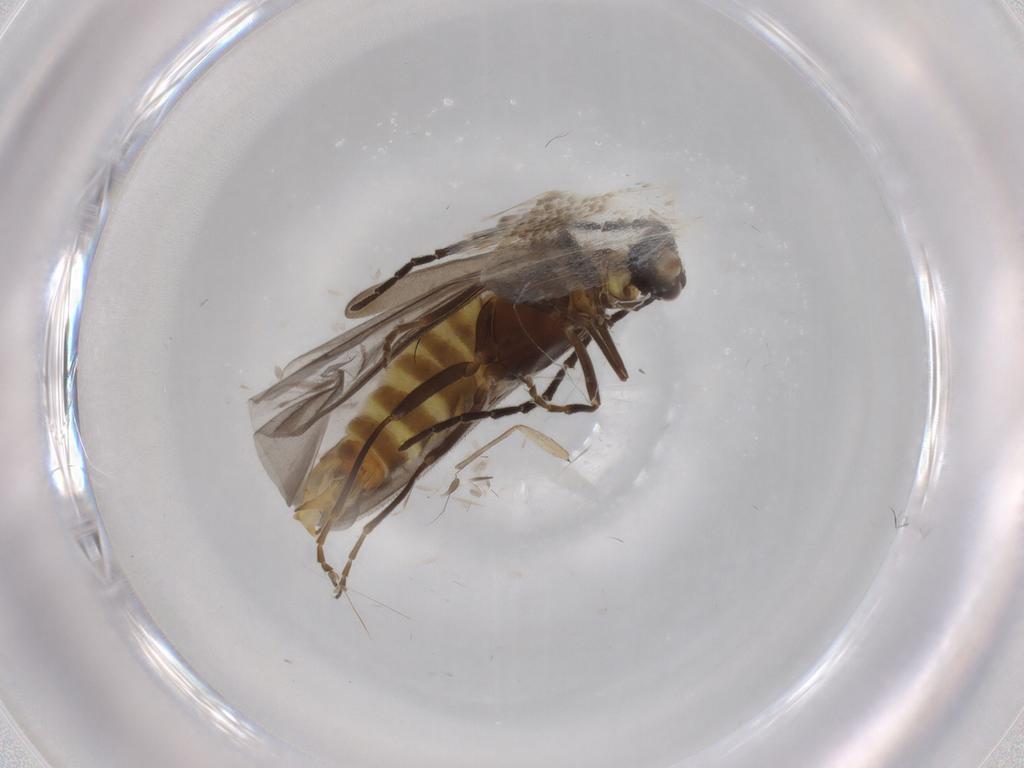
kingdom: Animalia
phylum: Arthropoda
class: Insecta
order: Coleoptera
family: Cantharidae
